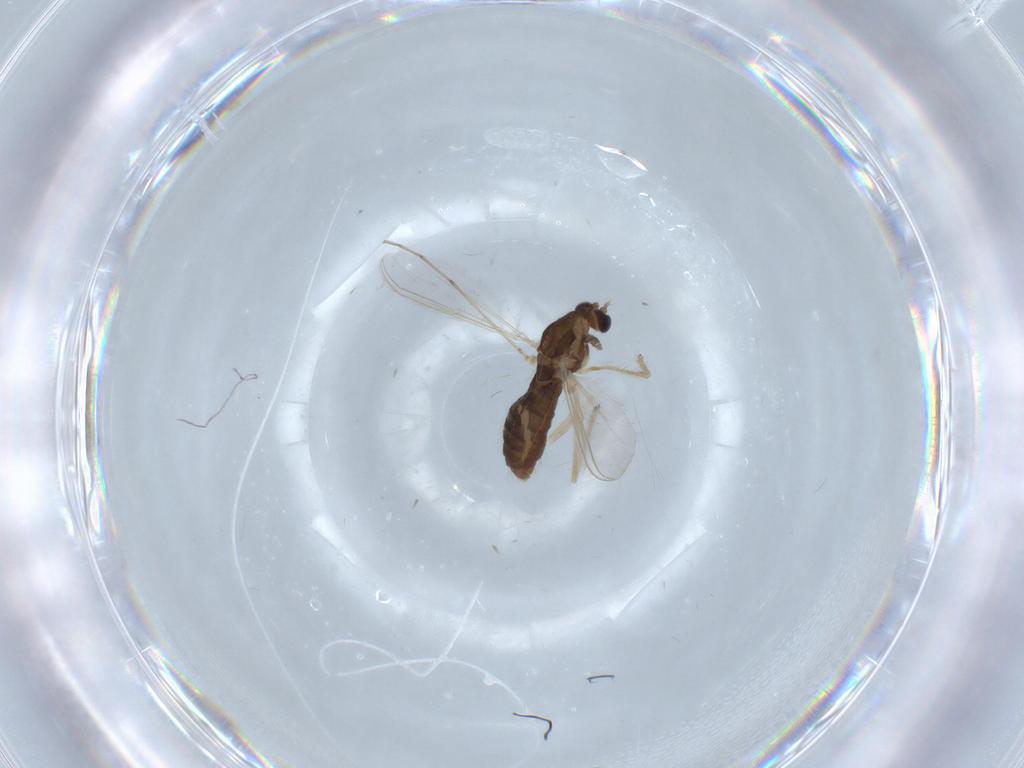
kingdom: Animalia
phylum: Arthropoda
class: Insecta
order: Diptera
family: Chironomidae
